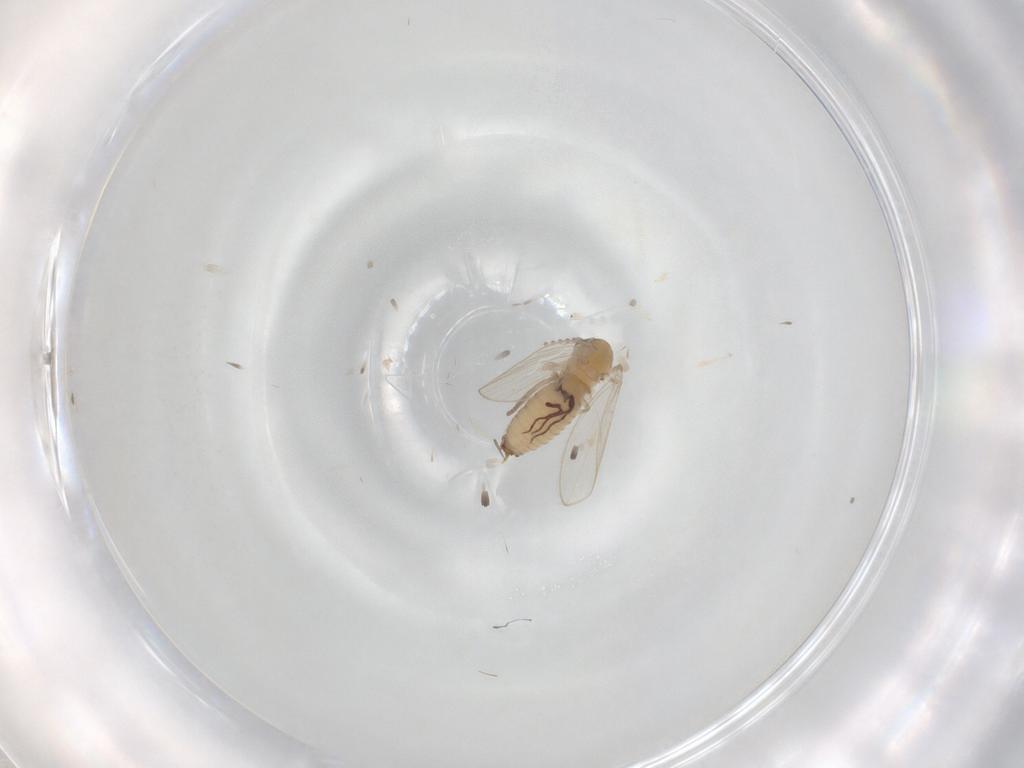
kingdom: Animalia
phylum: Arthropoda
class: Insecta
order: Diptera
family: Psychodidae
